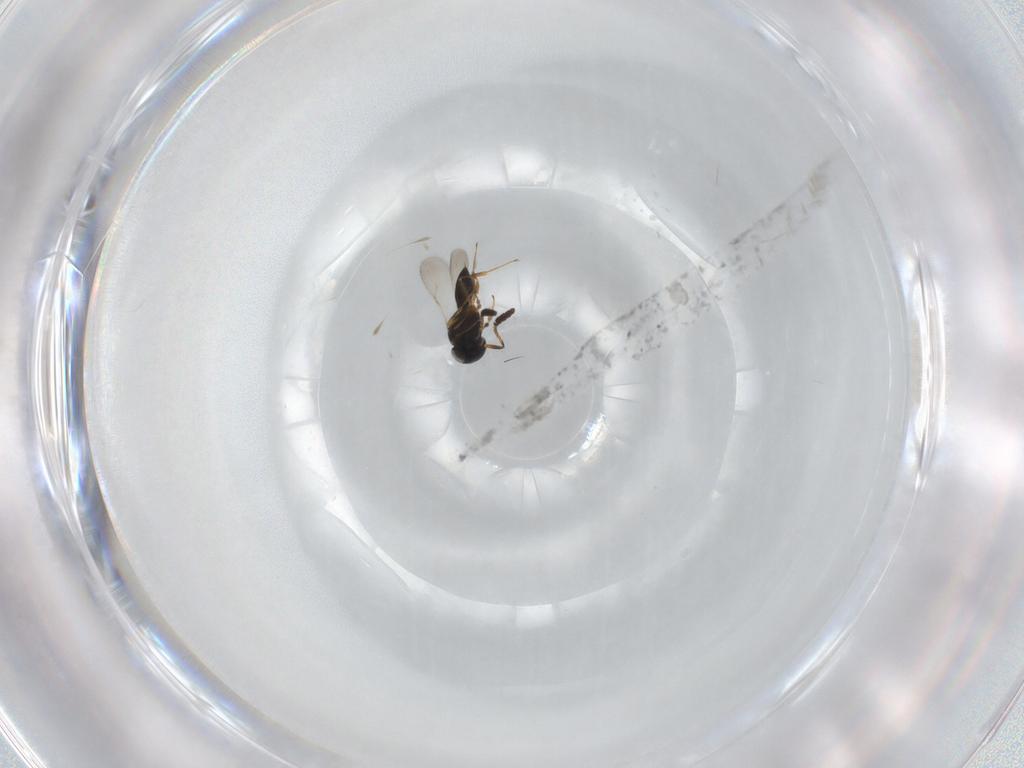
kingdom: Animalia
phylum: Arthropoda
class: Insecta
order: Hymenoptera
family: Scelionidae
